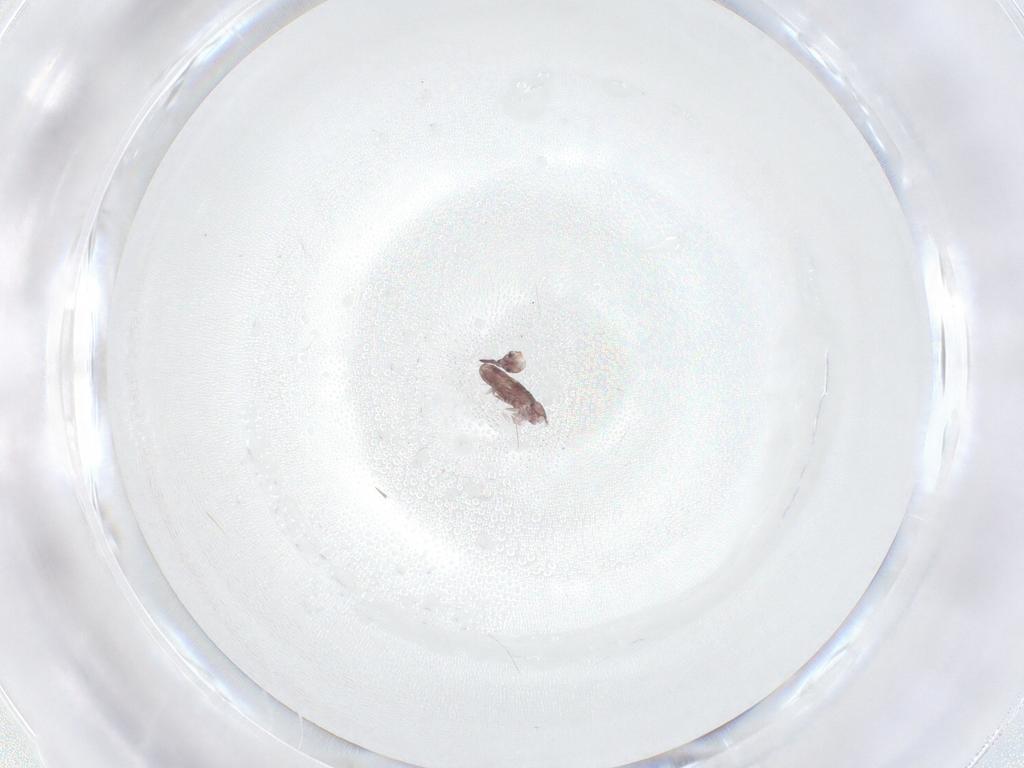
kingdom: Animalia
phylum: Arthropoda
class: Collembola
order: Entomobryomorpha
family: Entomobryidae
